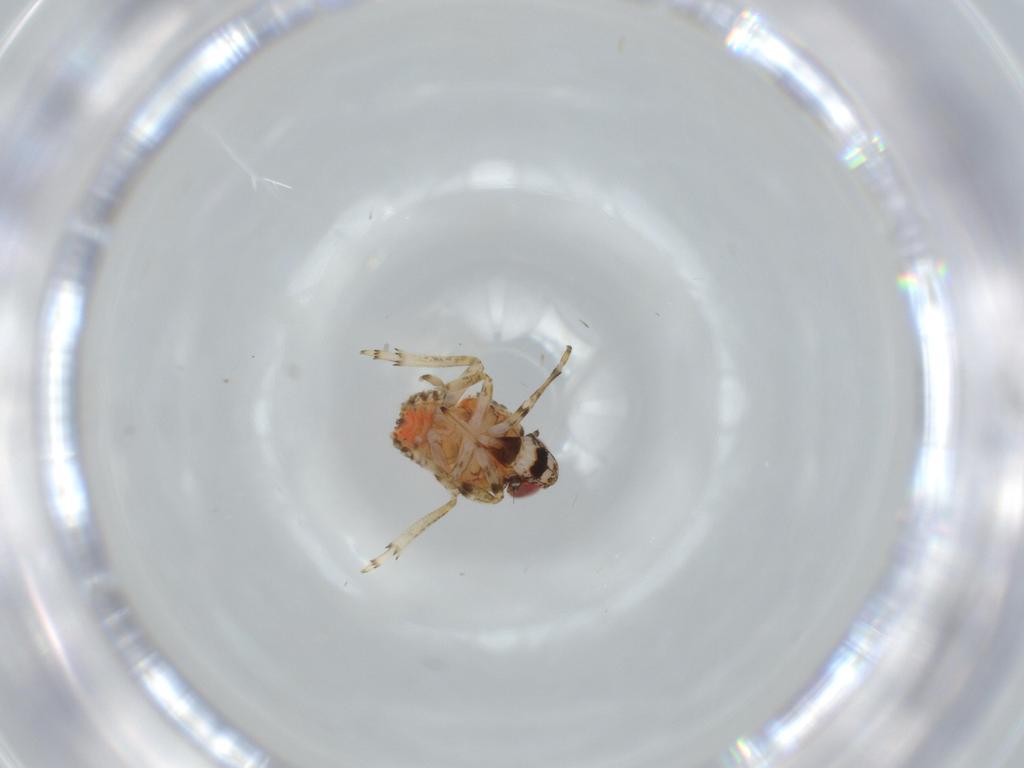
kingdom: Animalia
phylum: Arthropoda
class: Insecta
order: Hemiptera
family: Issidae
